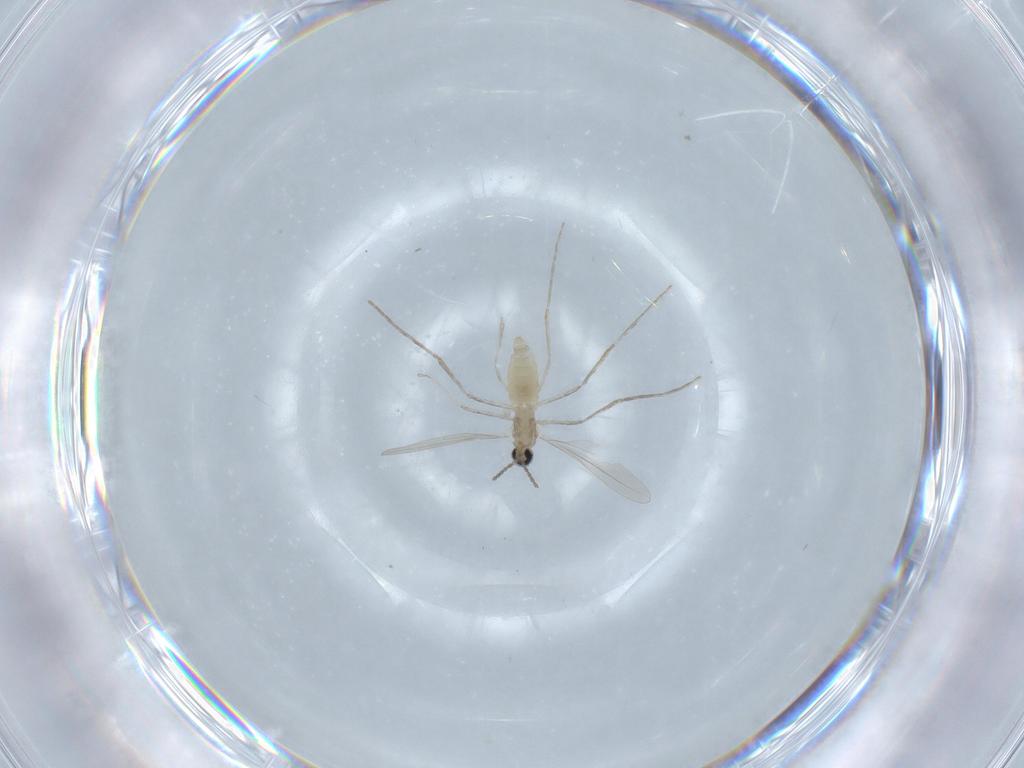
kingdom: Animalia
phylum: Arthropoda
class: Insecta
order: Diptera
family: Cecidomyiidae
